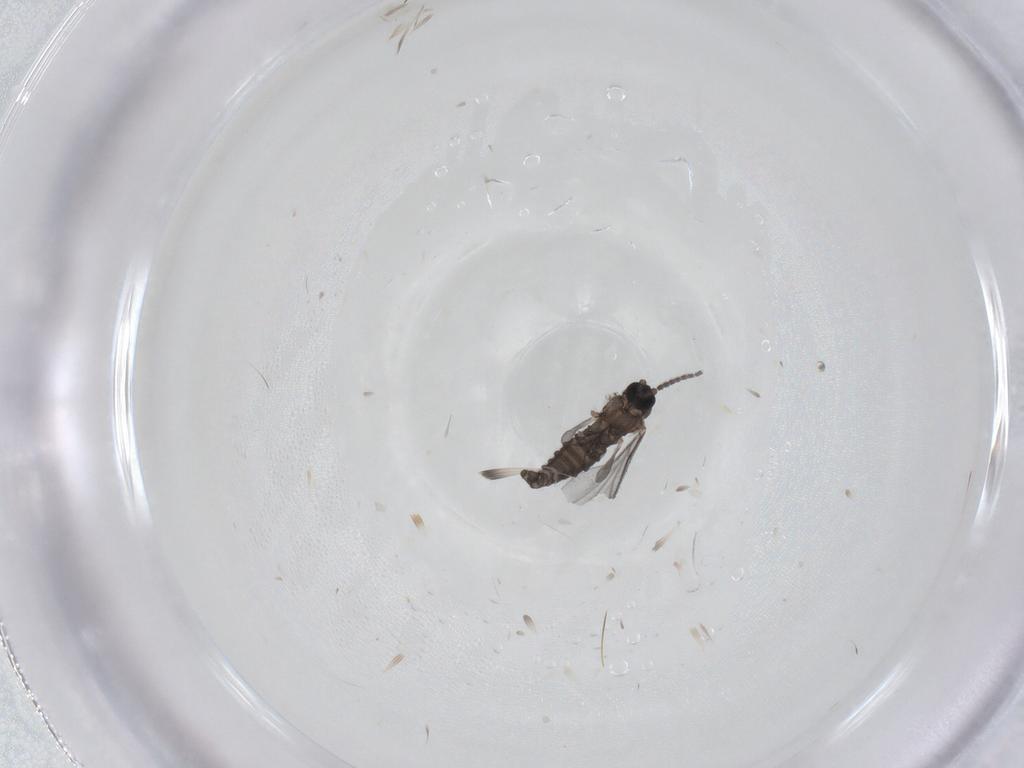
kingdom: Animalia
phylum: Arthropoda
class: Insecta
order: Diptera
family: Sciaridae
